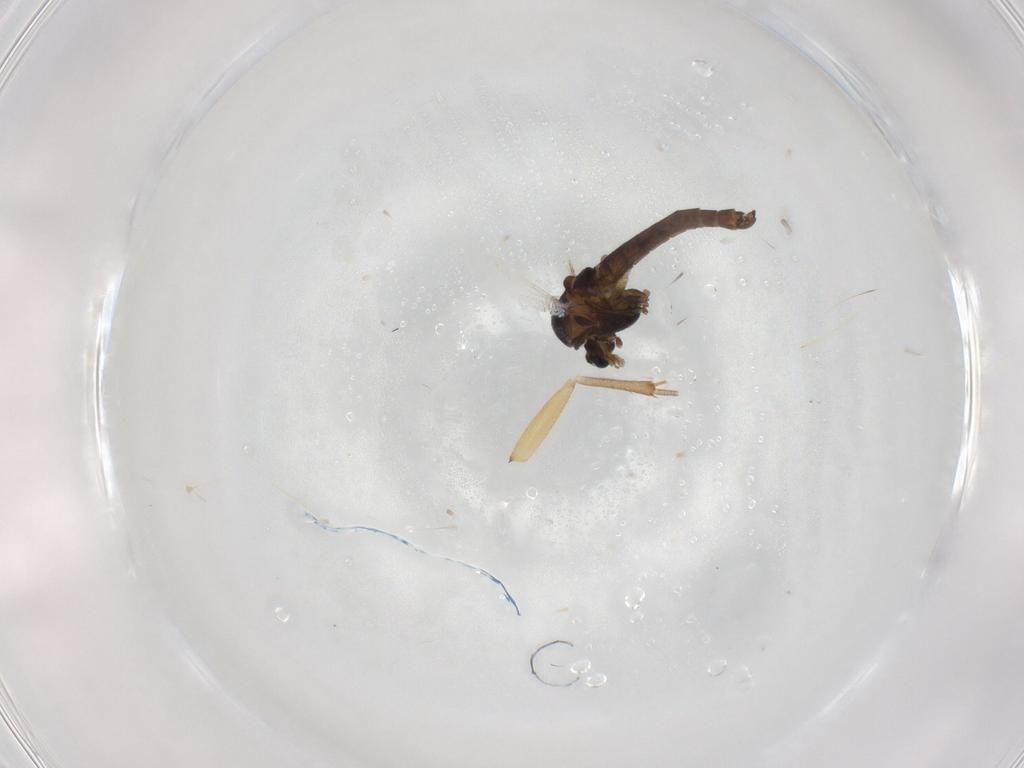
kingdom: Animalia
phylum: Arthropoda
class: Insecta
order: Diptera
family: Mycetophilidae
